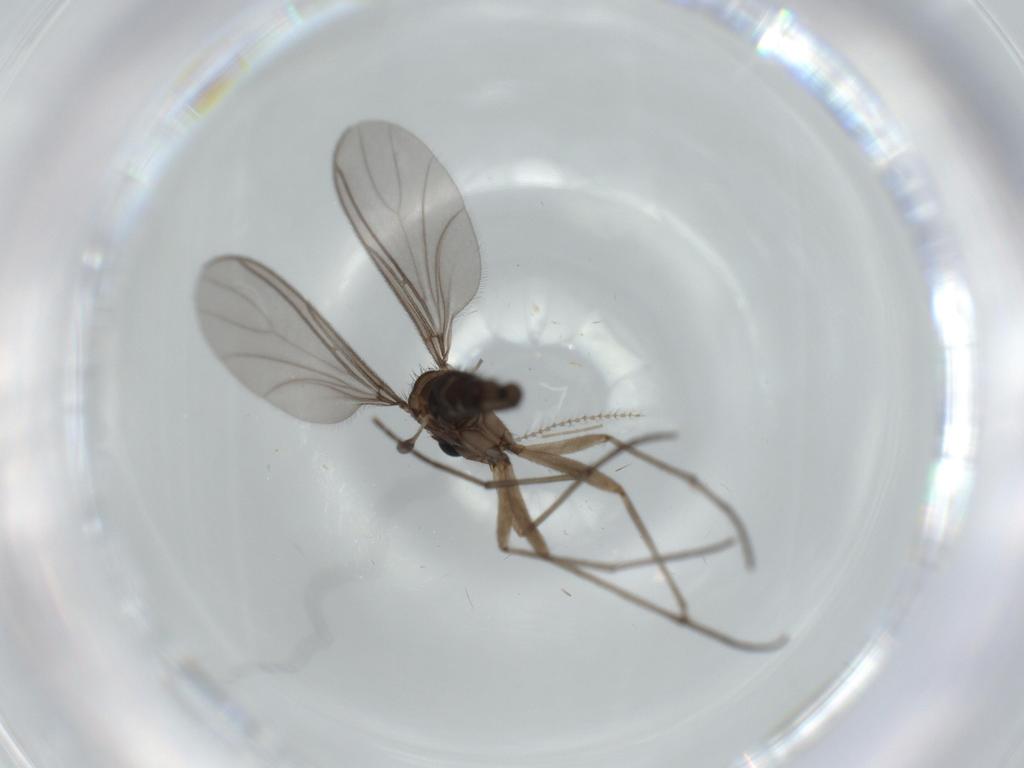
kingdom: Animalia
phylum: Arthropoda
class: Insecta
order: Diptera
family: Sciaridae
